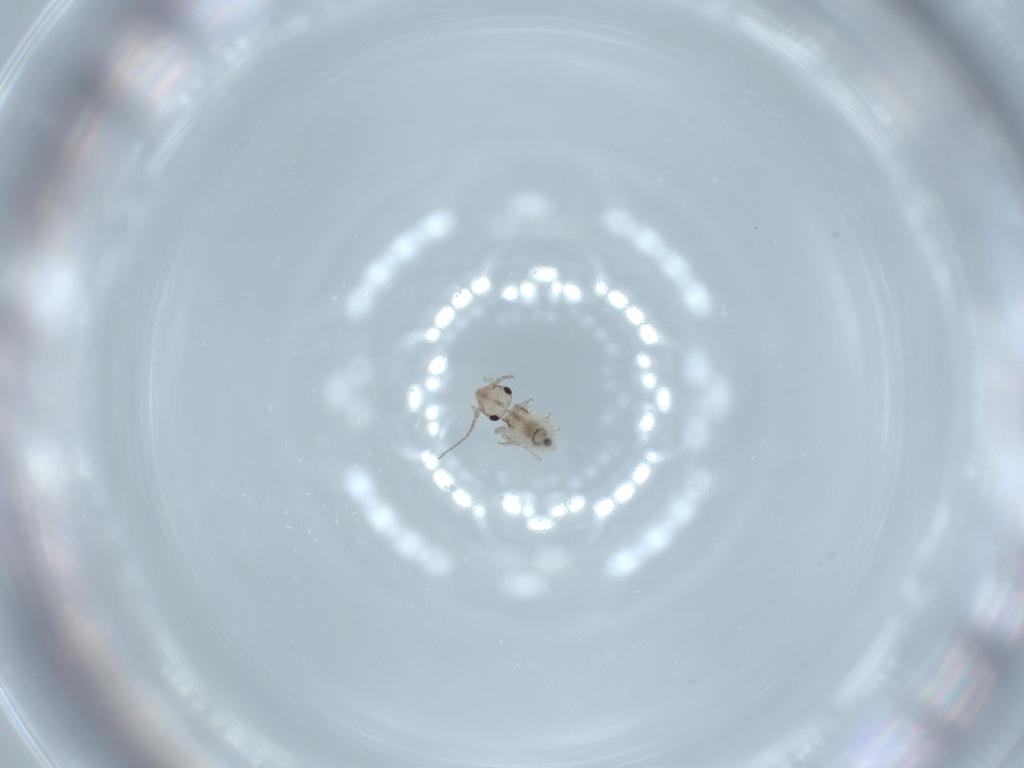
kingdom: Animalia
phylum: Arthropoda
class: Insecta
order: Psocodea
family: Lepidopsocidae
